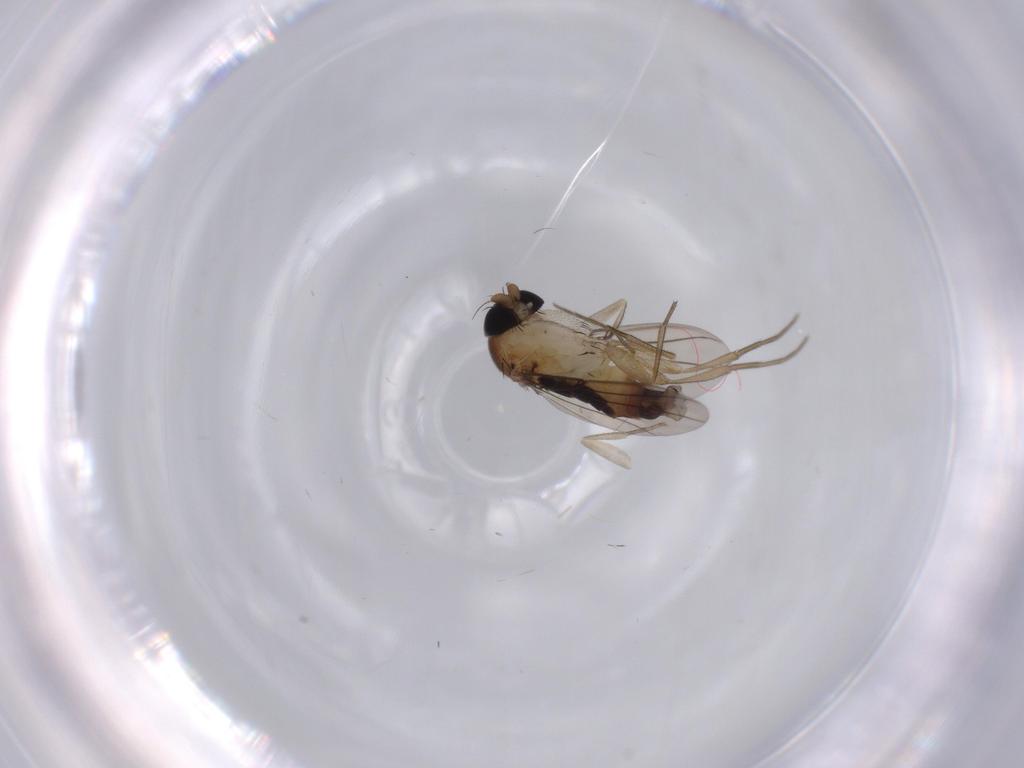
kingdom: Animalia
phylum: Arthropoda
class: Insecta
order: Diptera
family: Phoridae
